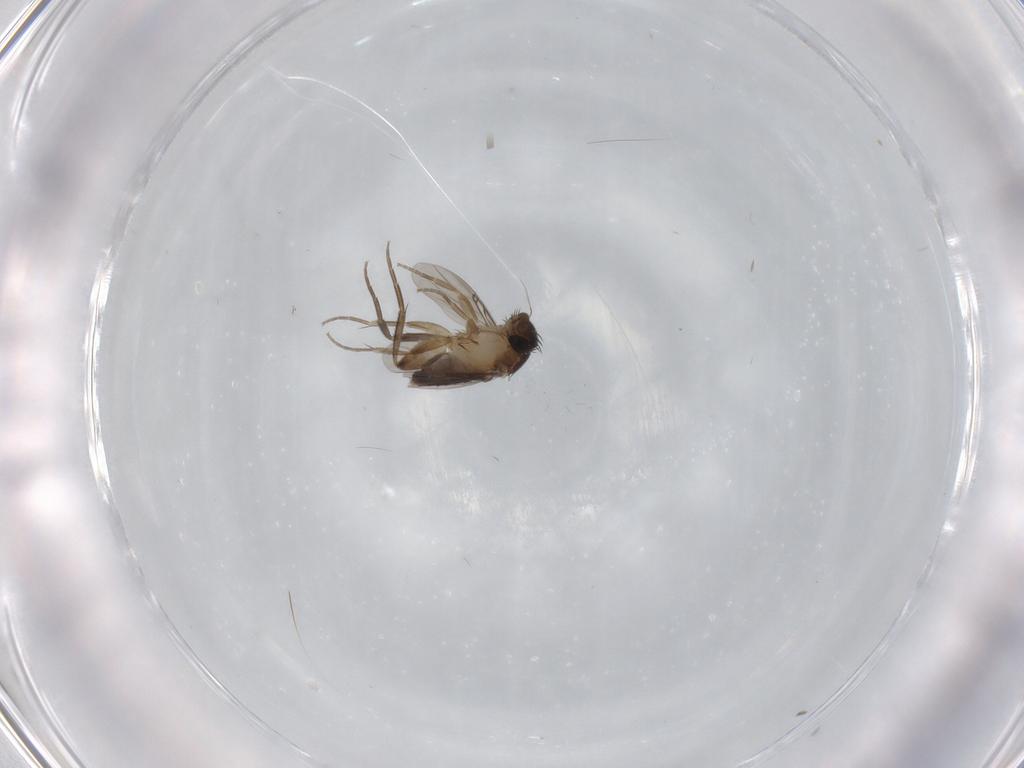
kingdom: Animalia
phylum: Arthropoda
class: Insecta
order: Diptera
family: Phoridae
